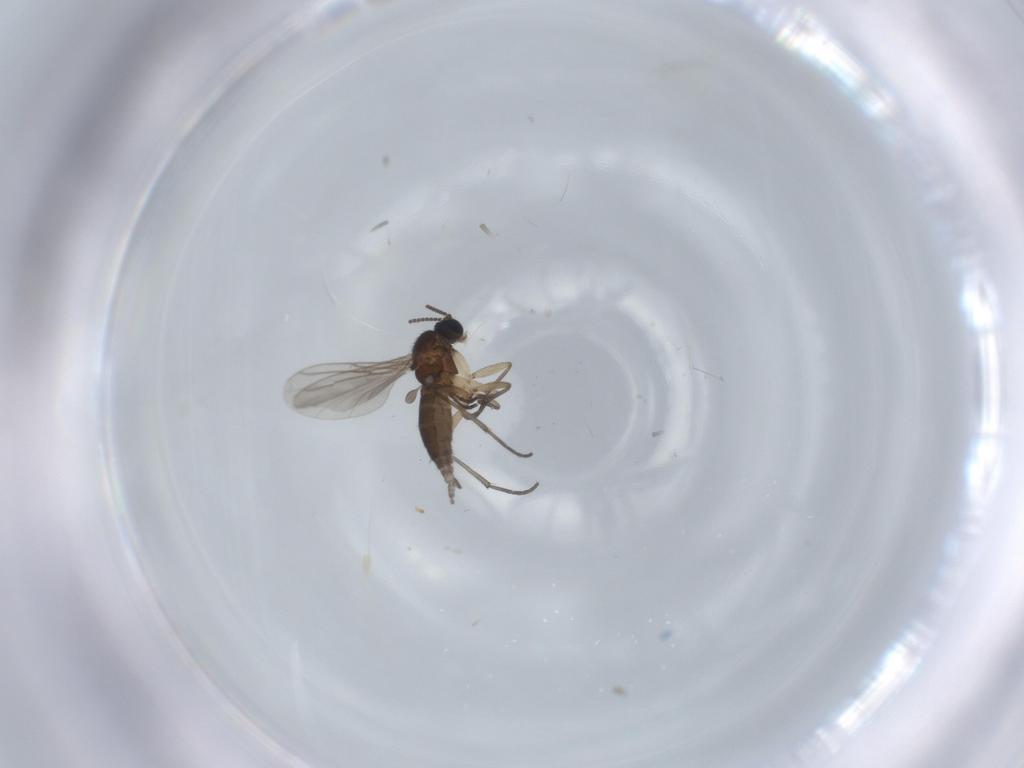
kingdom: Animalia
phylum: Arthropoda
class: Insecta
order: Diptera
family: Sciaridae
